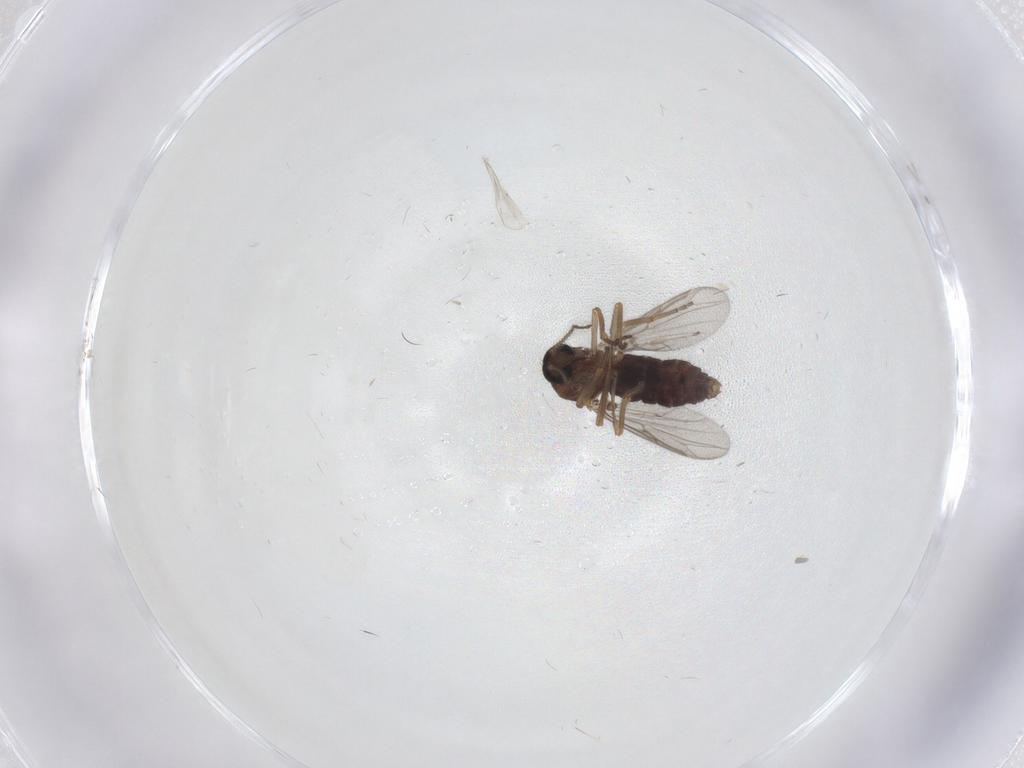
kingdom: Animalia
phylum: Arthropoda
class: Insecta
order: Diptera
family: Ceratopogonidae
